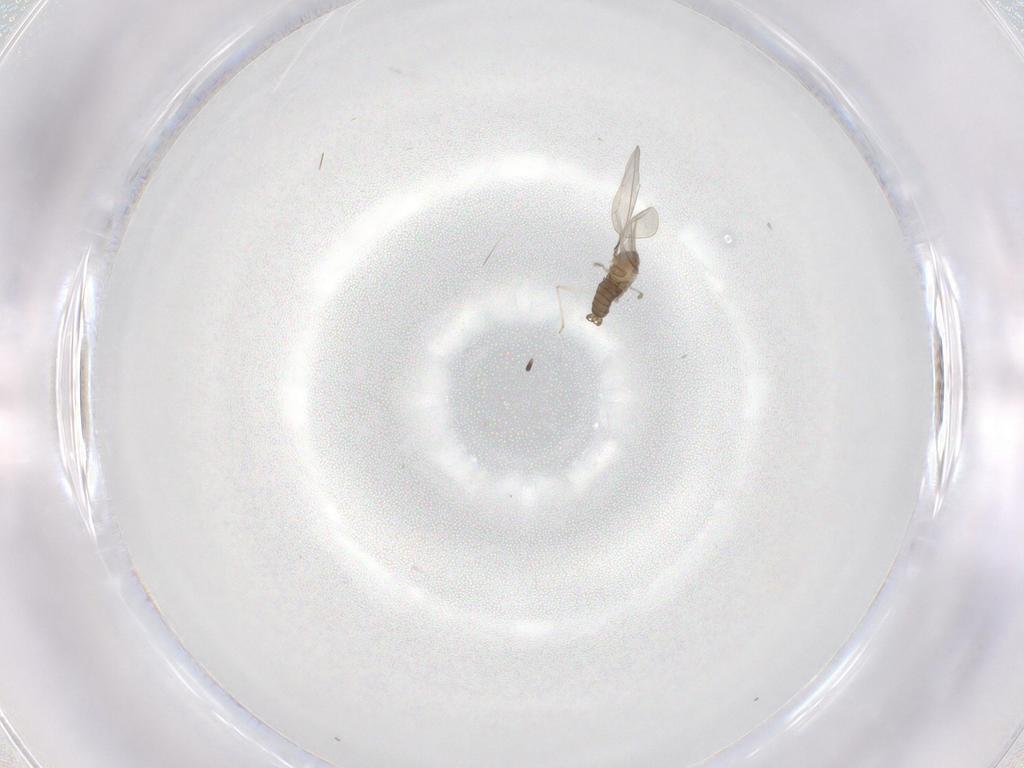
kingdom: Animalia
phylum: Arthropoda
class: Insecta
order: Diptera
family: Cecidomyiidae
